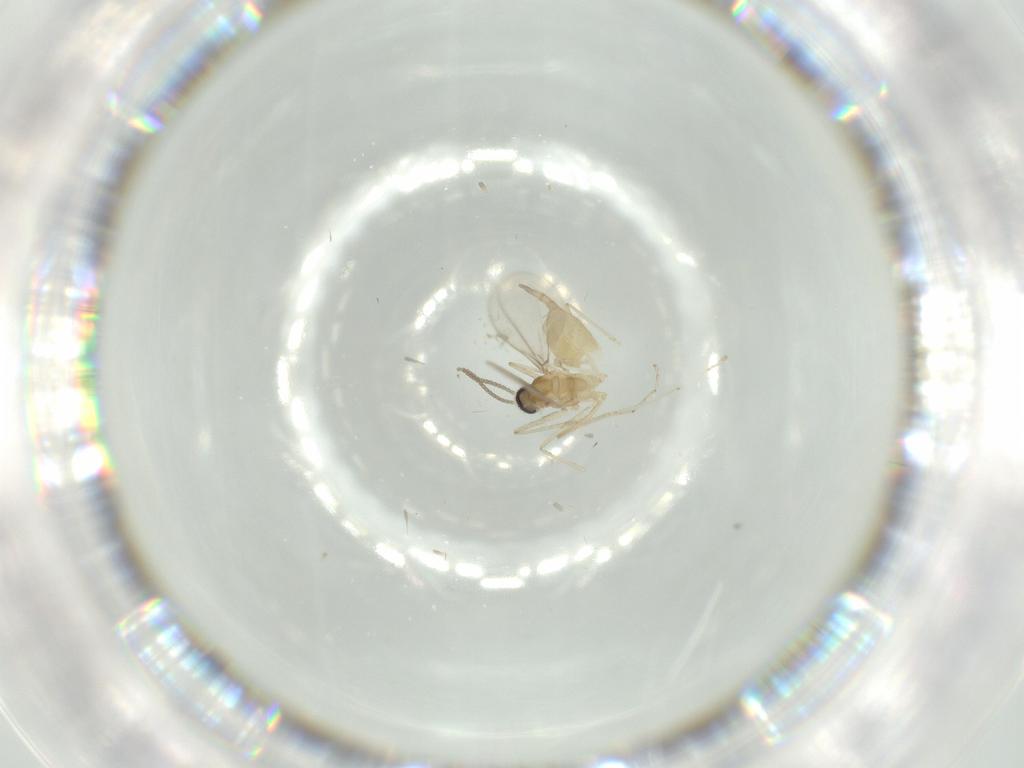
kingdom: Animalia
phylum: Arthropoda
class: Insecta
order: Diptera
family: Cecidomyiidae
